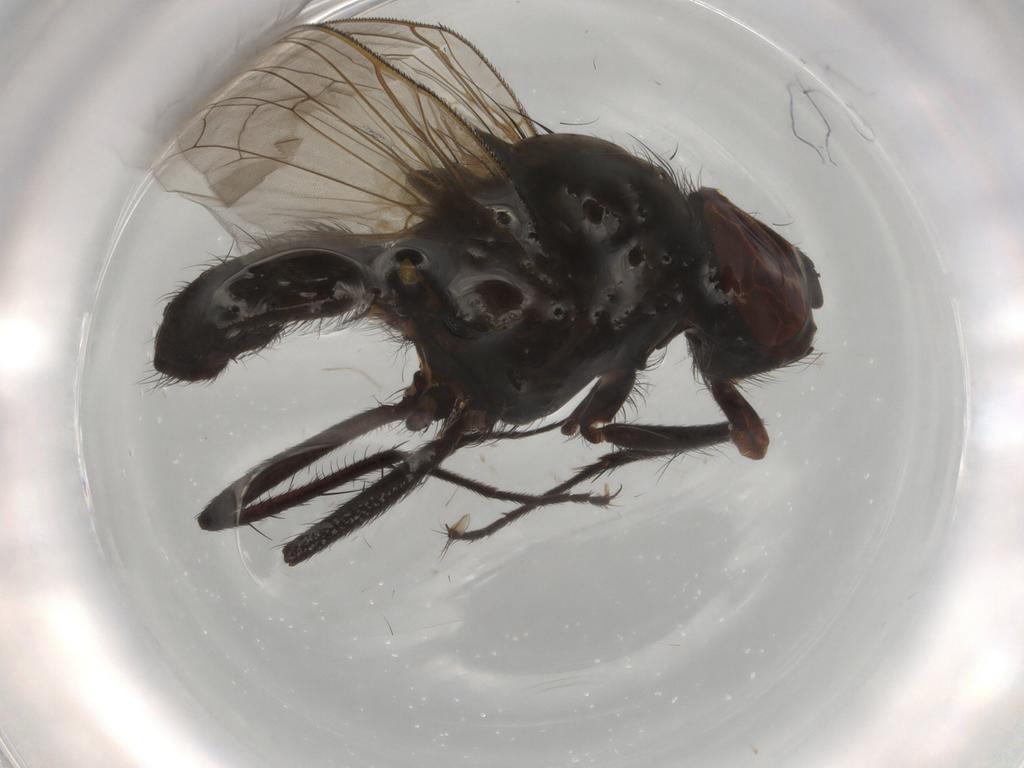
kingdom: Animalia
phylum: Arthropoda
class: Insecta
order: Diptera
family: Cecidomyiidae
